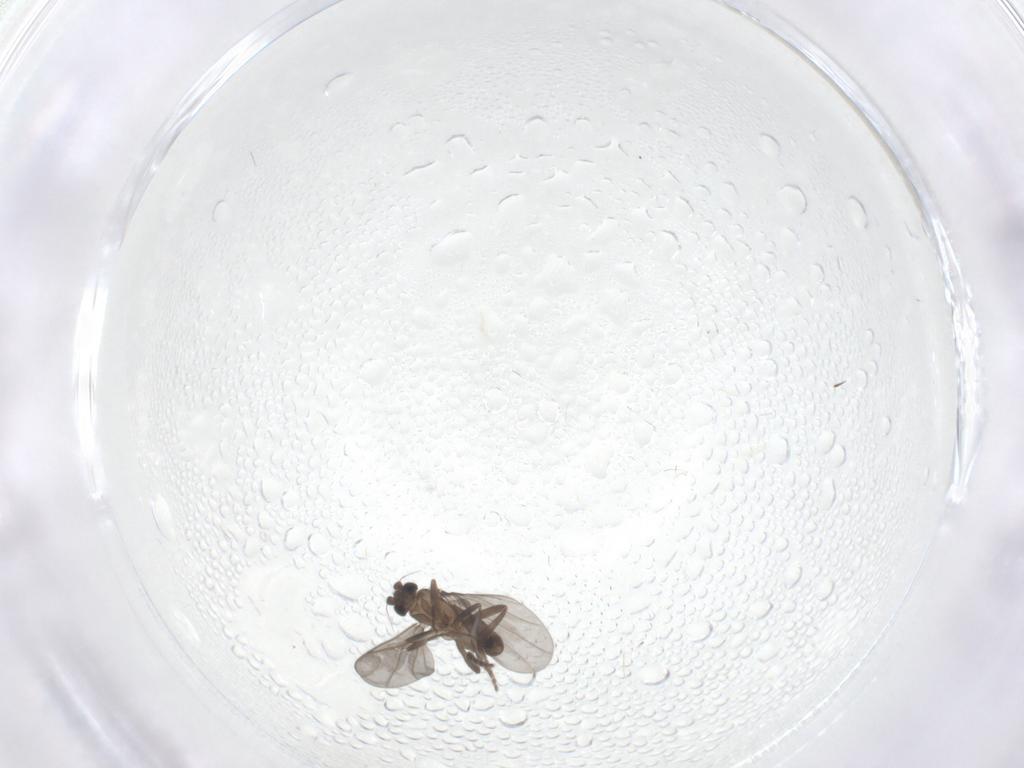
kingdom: Animalia
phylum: Arthropoda
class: Insecta
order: Diptera
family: Phoridae
